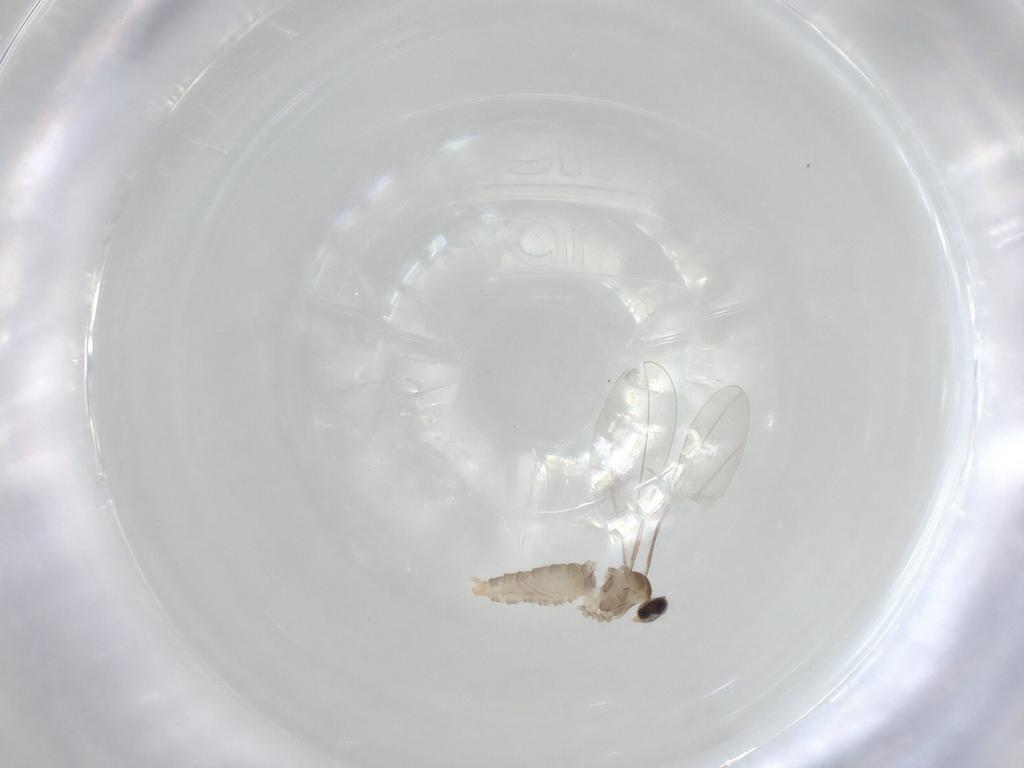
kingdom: Animalia
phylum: Arthropoda
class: Insecta
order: Diptera
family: Cecidomyiidae
